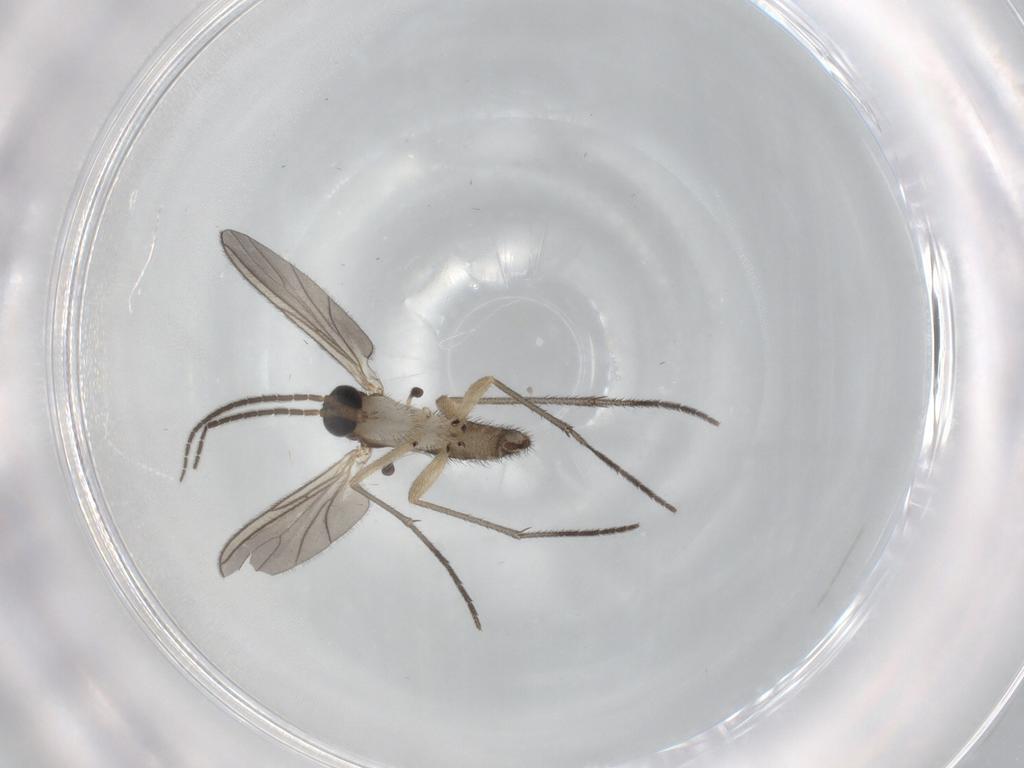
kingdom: Animalia
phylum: Arthropoda
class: Insecta
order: Diptera
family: Sciaridae
